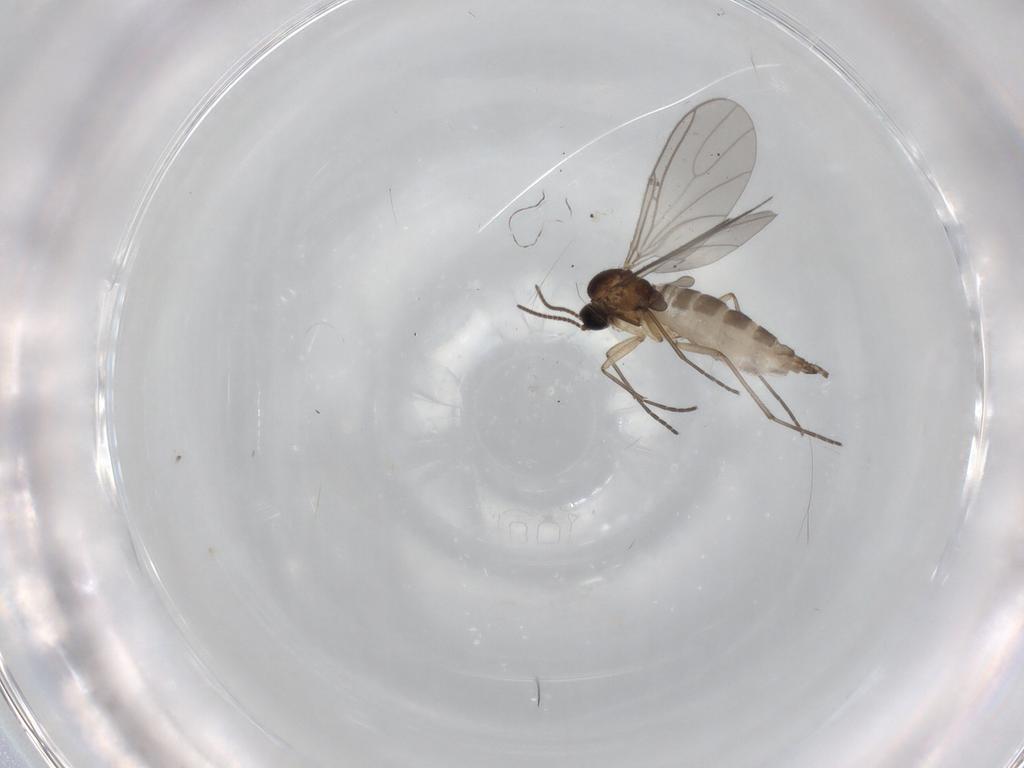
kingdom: Animalia
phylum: Arthropoda
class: Insecta
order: Diptera
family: Sciaridae
